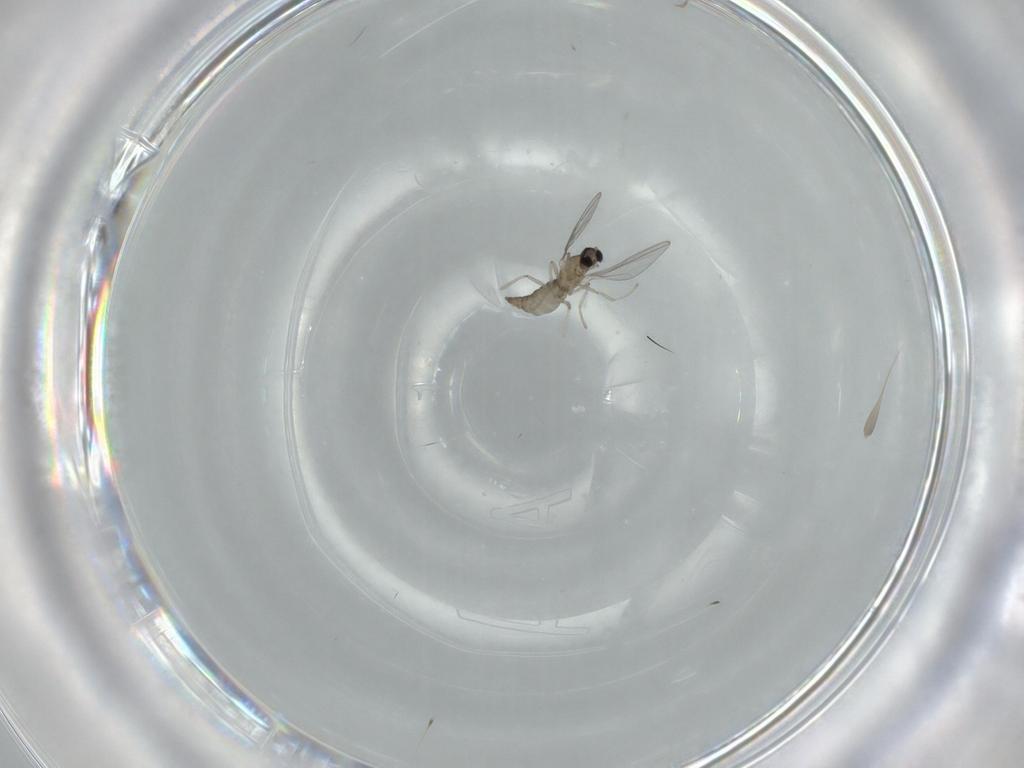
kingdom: Animalia
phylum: Arthropoda
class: Insecta
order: Diptera
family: Cecidomyiidae
